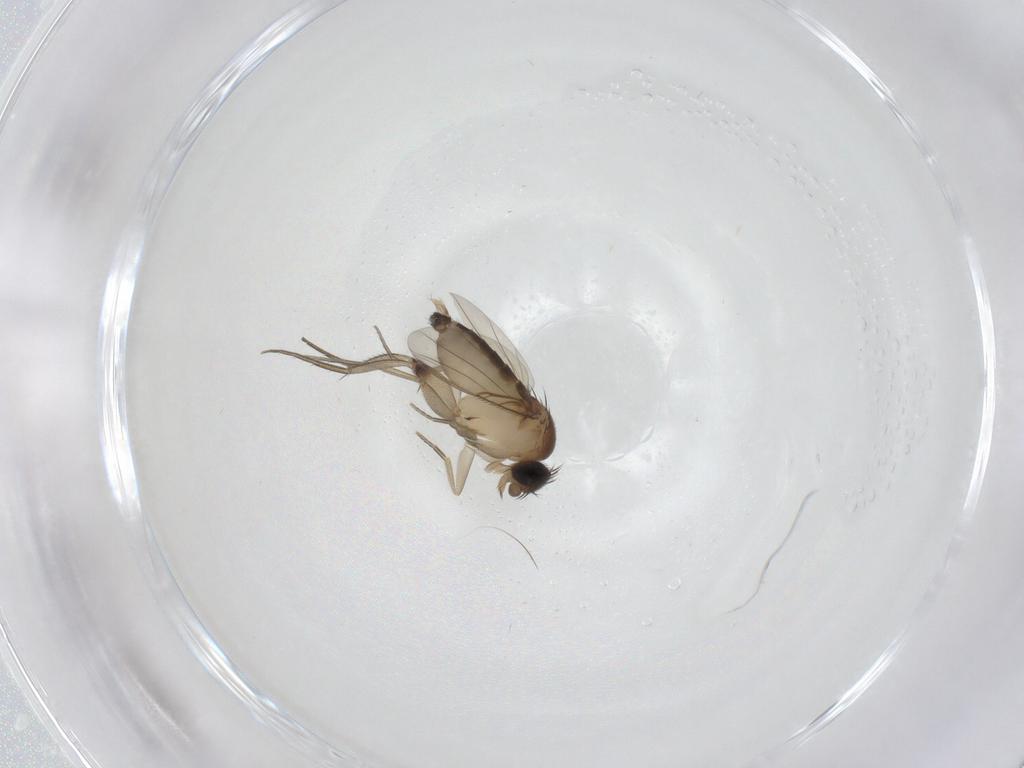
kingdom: Animalia
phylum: Arthropoda
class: Insecta
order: Diptera
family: Phoridae
